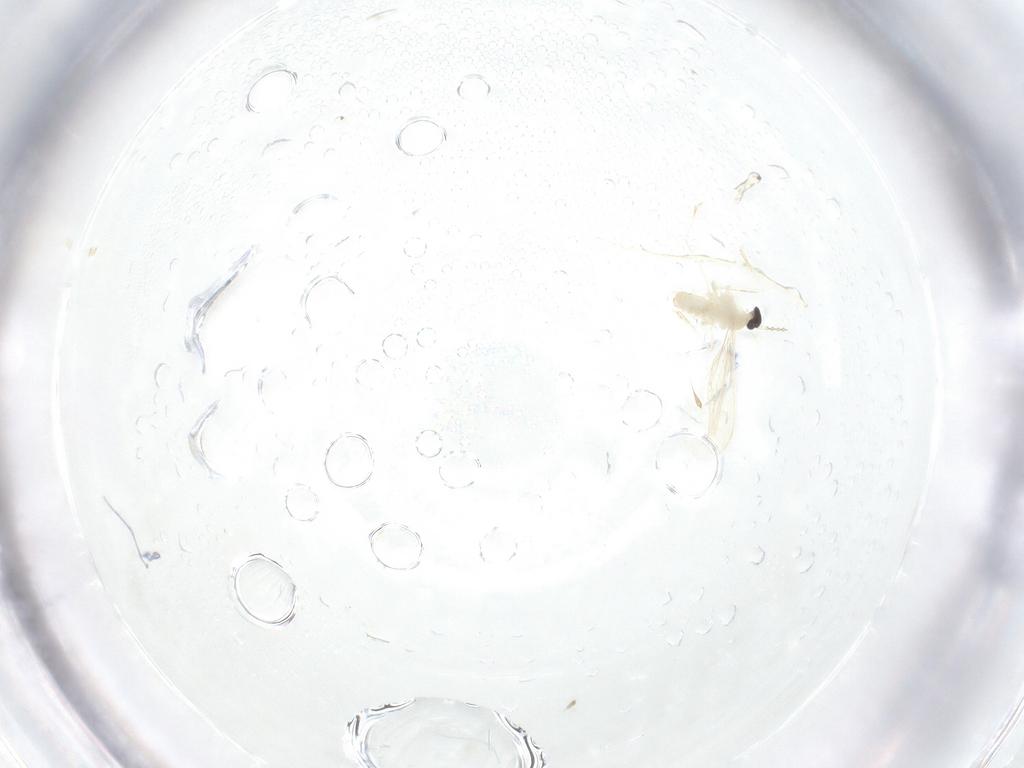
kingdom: Animalia
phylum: Arthropoda
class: Insecta
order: Diptera
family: Cecidomyiidae
